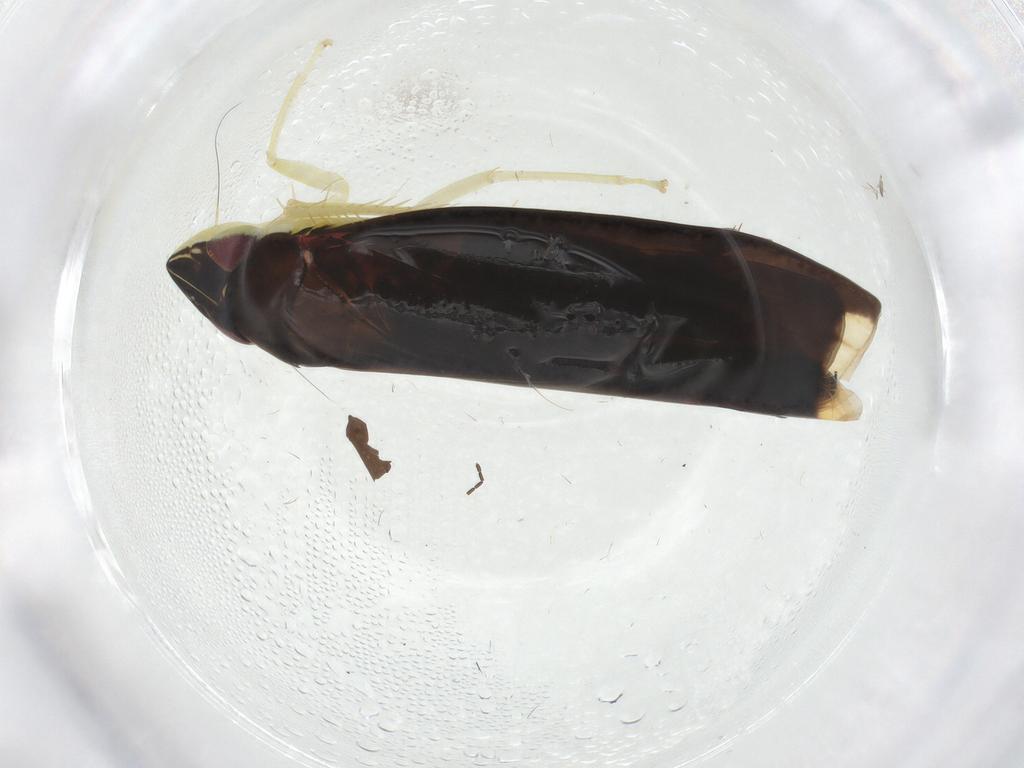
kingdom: Animalia
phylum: Arthropoda
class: Insecta
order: Hemiptera
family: Cicadellidae
